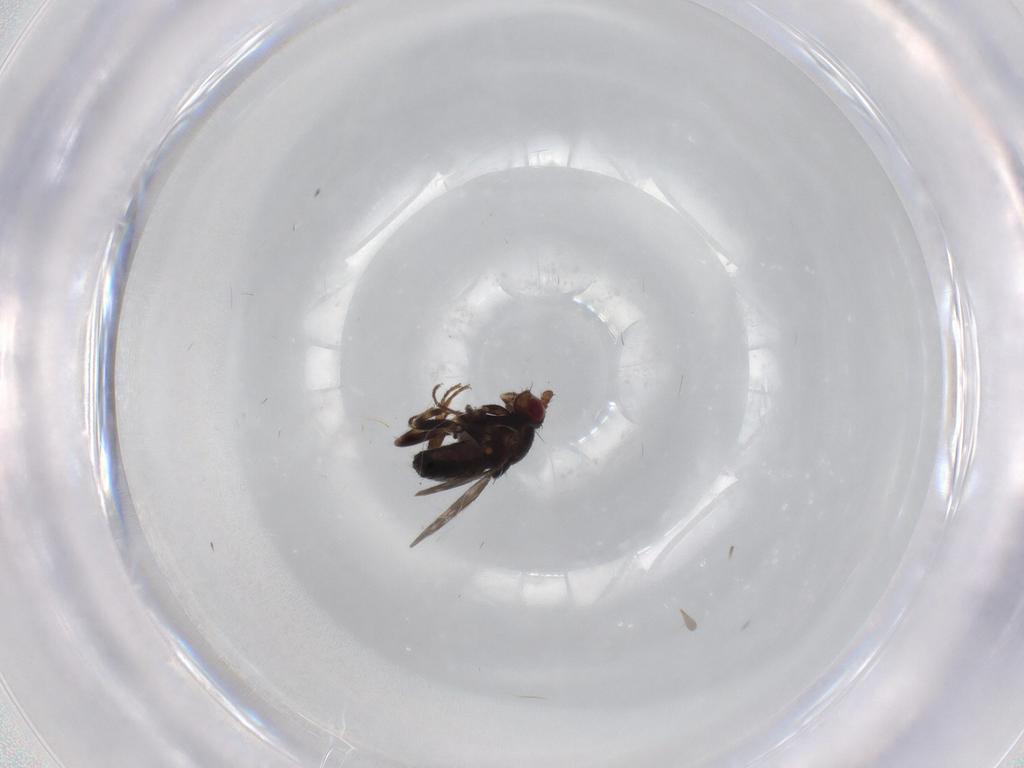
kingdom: Animalia
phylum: Arthropoda
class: Insecta
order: Diptera
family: Sphaeroceridae
